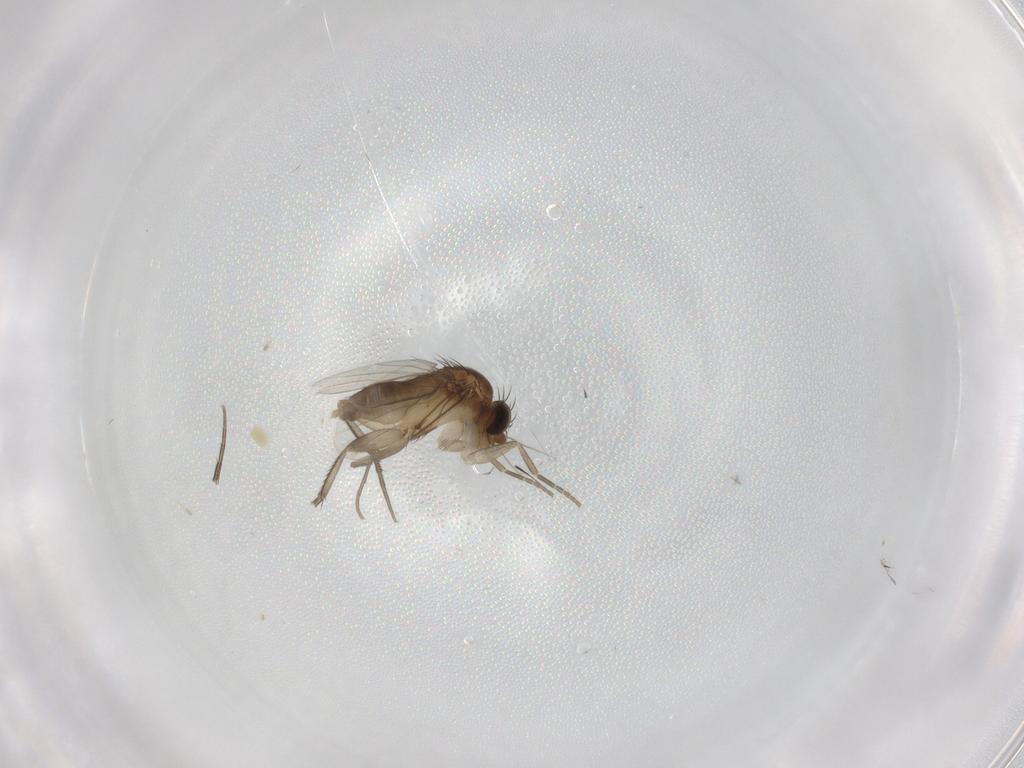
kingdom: Animalia
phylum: Arthropoda
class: Insecta
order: Diptera
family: Phoridae
